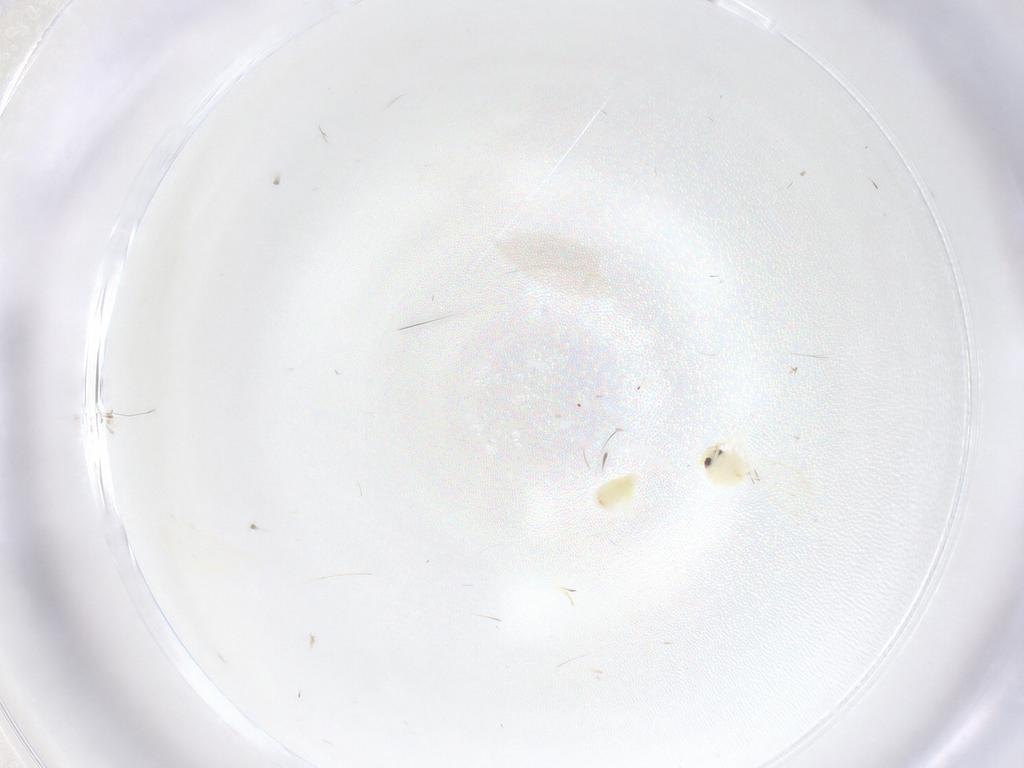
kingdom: Animalia
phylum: Arthropoda
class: Insecta
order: Hemiptera
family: Aleyrodidae
